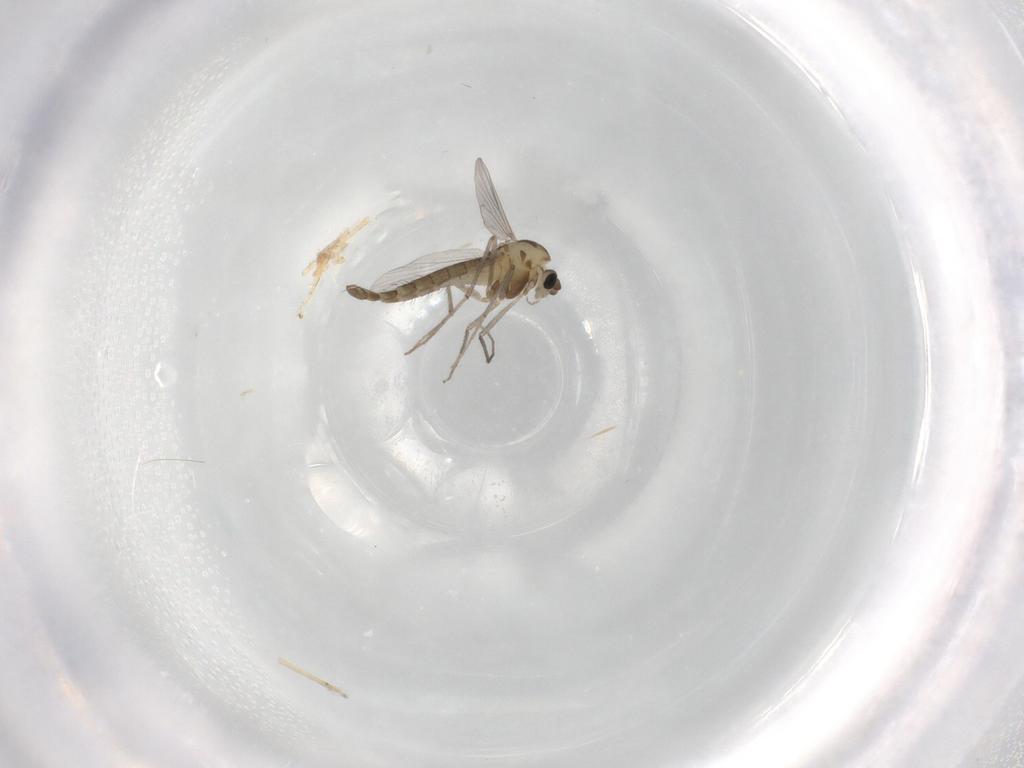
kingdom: Animalia
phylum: Arthropoda
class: Insecta
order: Diptera
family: Chironomidae
